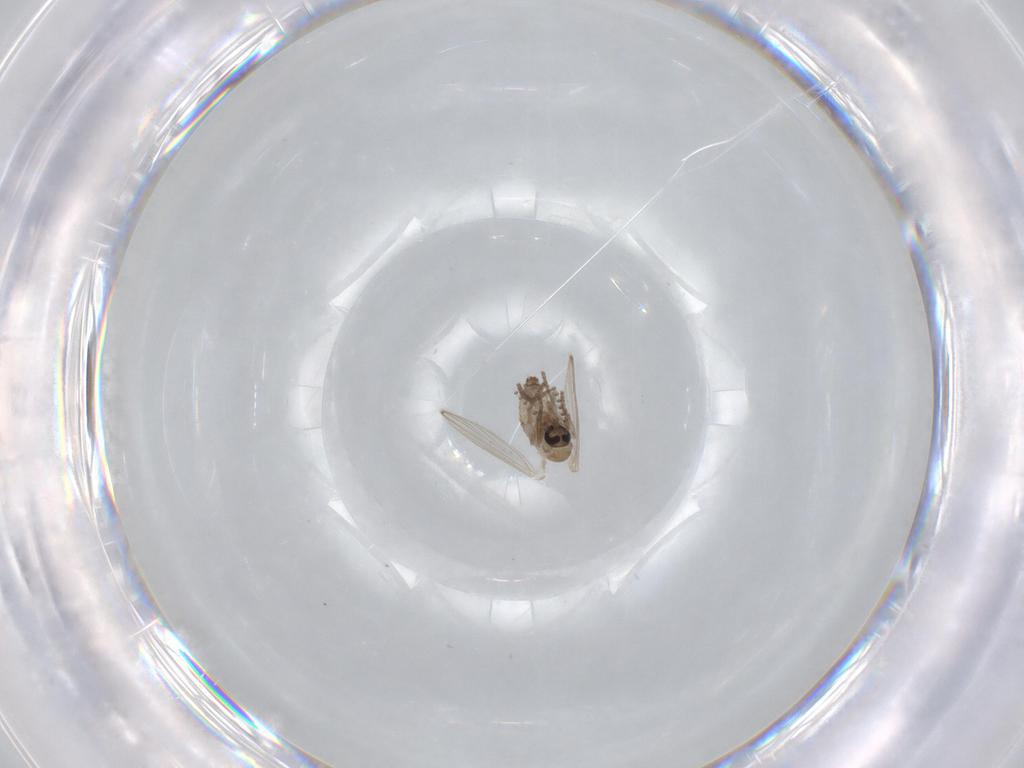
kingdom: Animalia
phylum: Arthropoda
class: Insecta
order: Diptera
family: Psychodidae
